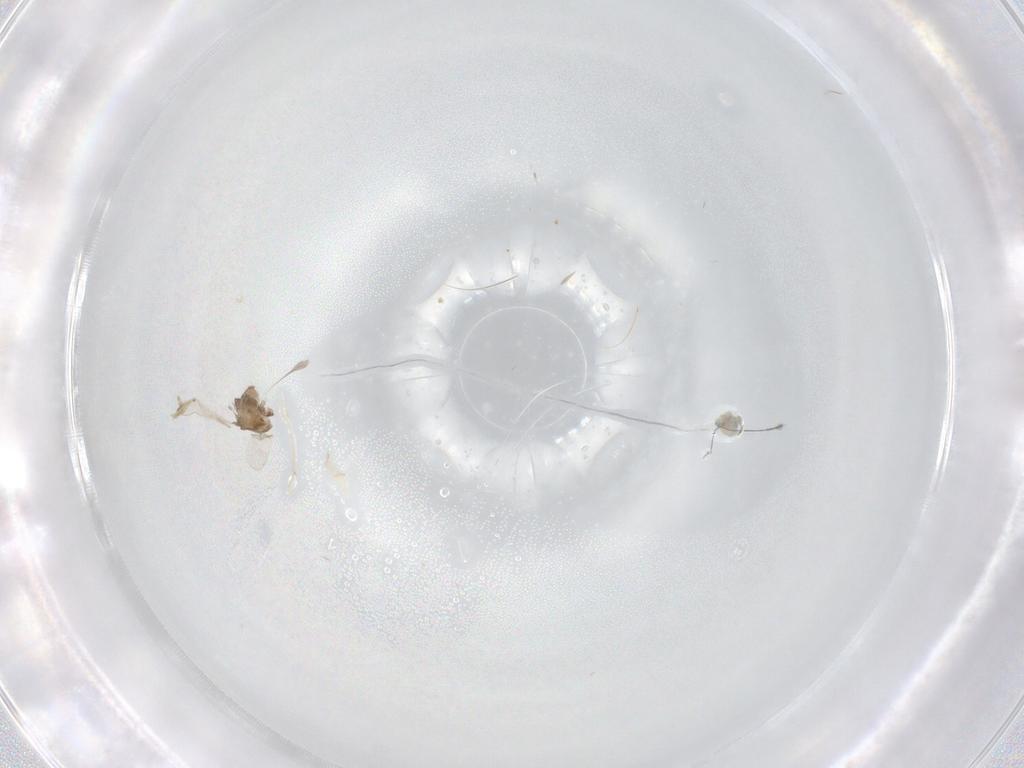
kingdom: Animalia
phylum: Arthropoda
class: Insecta
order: Diptera
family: Chironomidae
